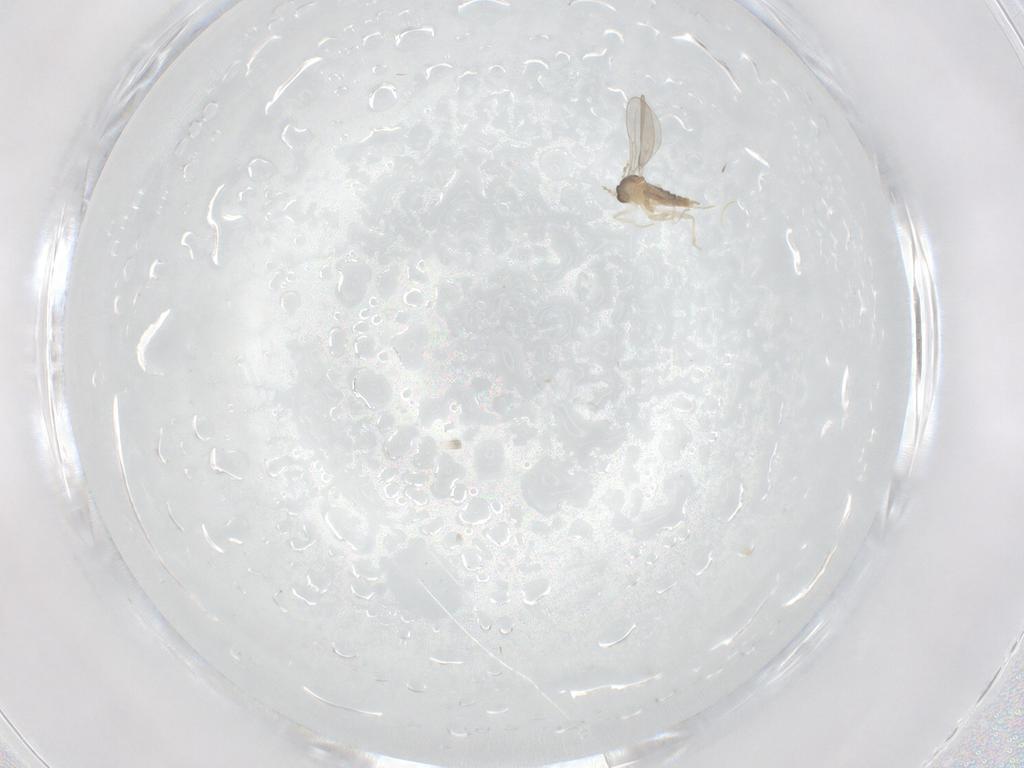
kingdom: Animalia
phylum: Arthropoda
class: Insecta
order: Diptera
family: Cecidomyiidae
